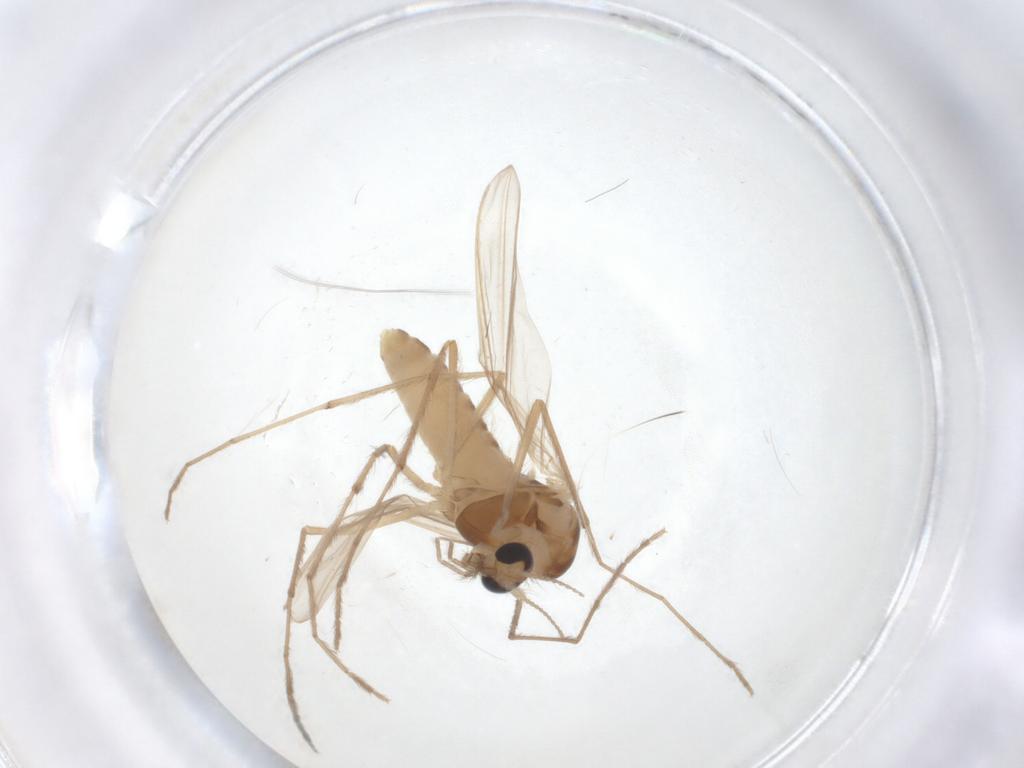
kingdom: Animalia
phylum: Arthropoda
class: Insecta
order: Diptera
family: Chironomidae
